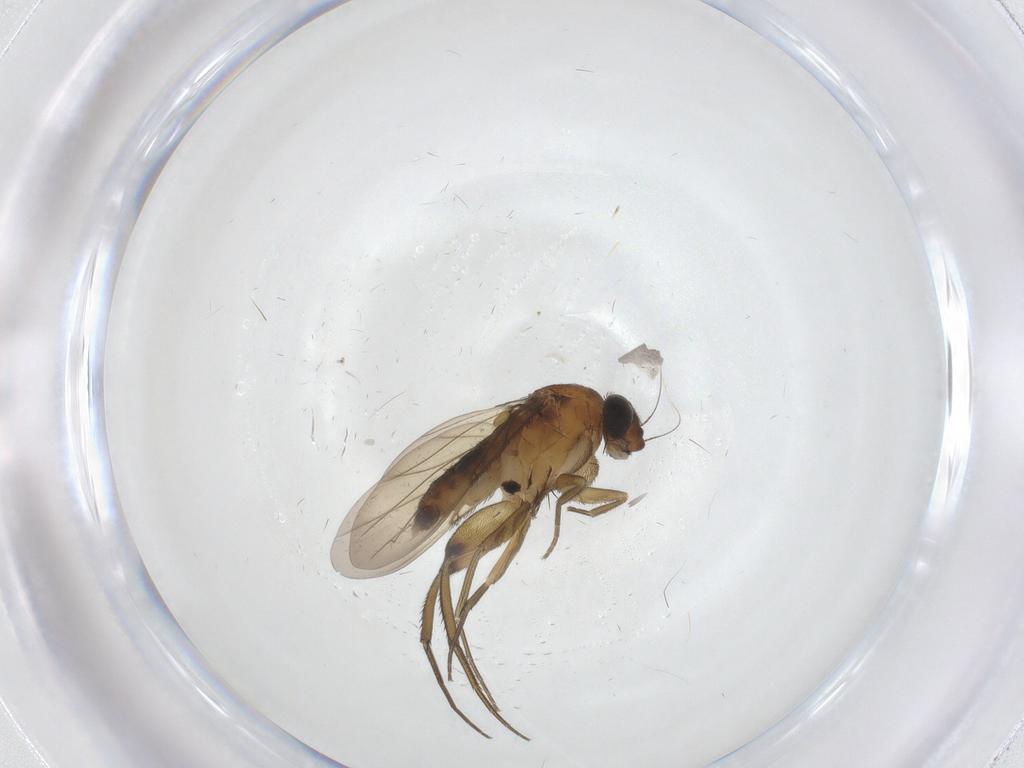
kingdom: Animalia
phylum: Arthropoda
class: Insecta
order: Diptera
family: Phoridae
